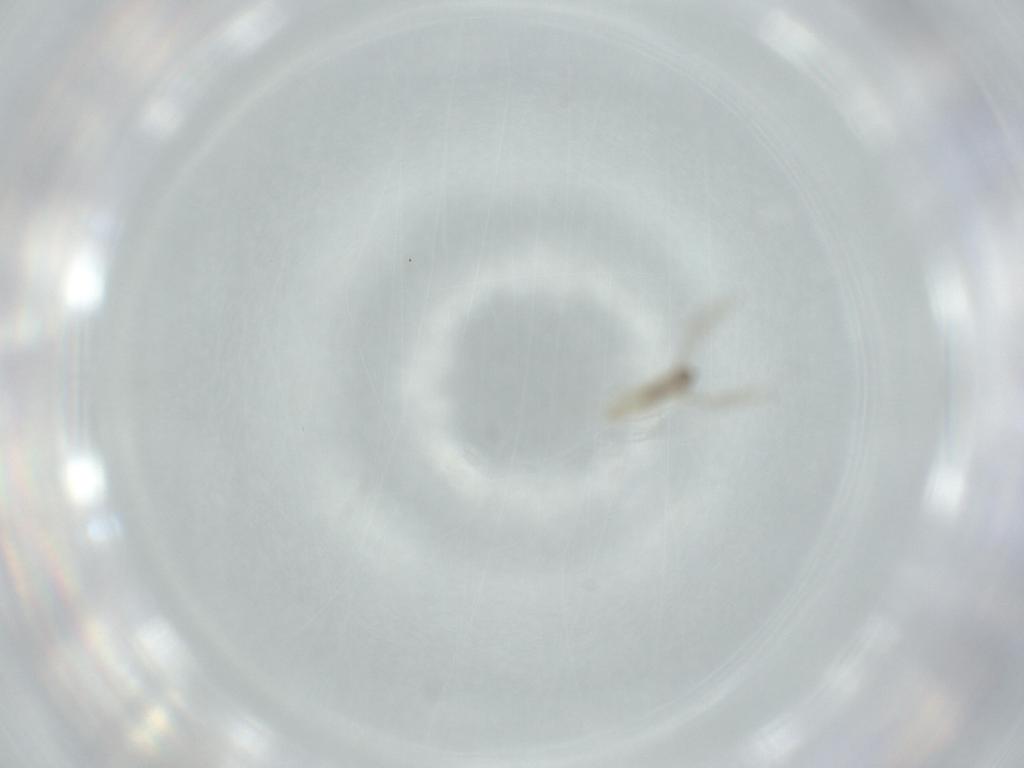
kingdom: Animalia
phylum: Arthropoda
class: Insecta
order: Diptera
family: Cecidomyiidae
